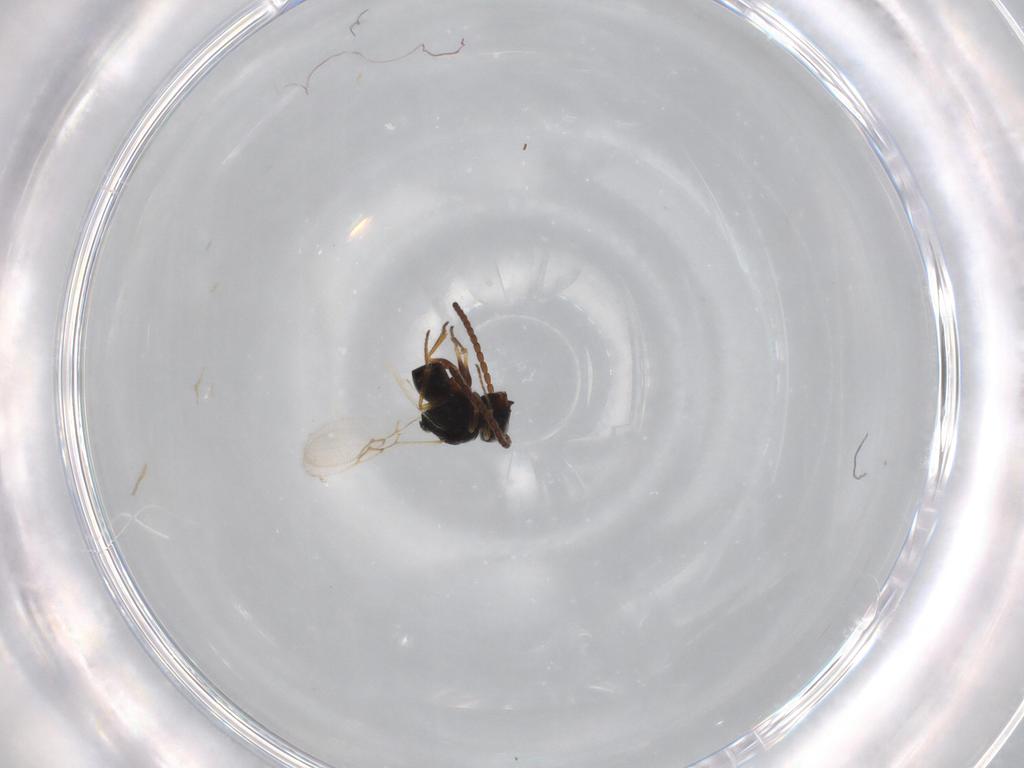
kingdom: Animalia
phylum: Arthropoda
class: Insecta
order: Hymenoptera
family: Figitidae
